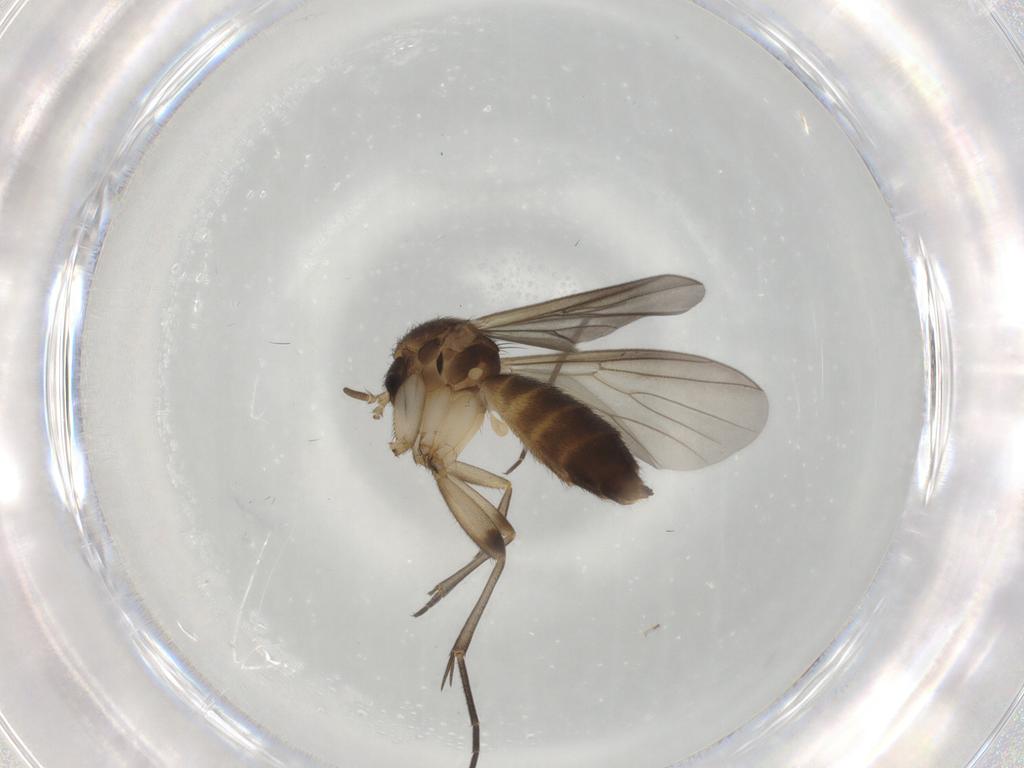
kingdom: Animalia
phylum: Arthropoda
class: Insecta
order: Diptera
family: Mycetophilidae
